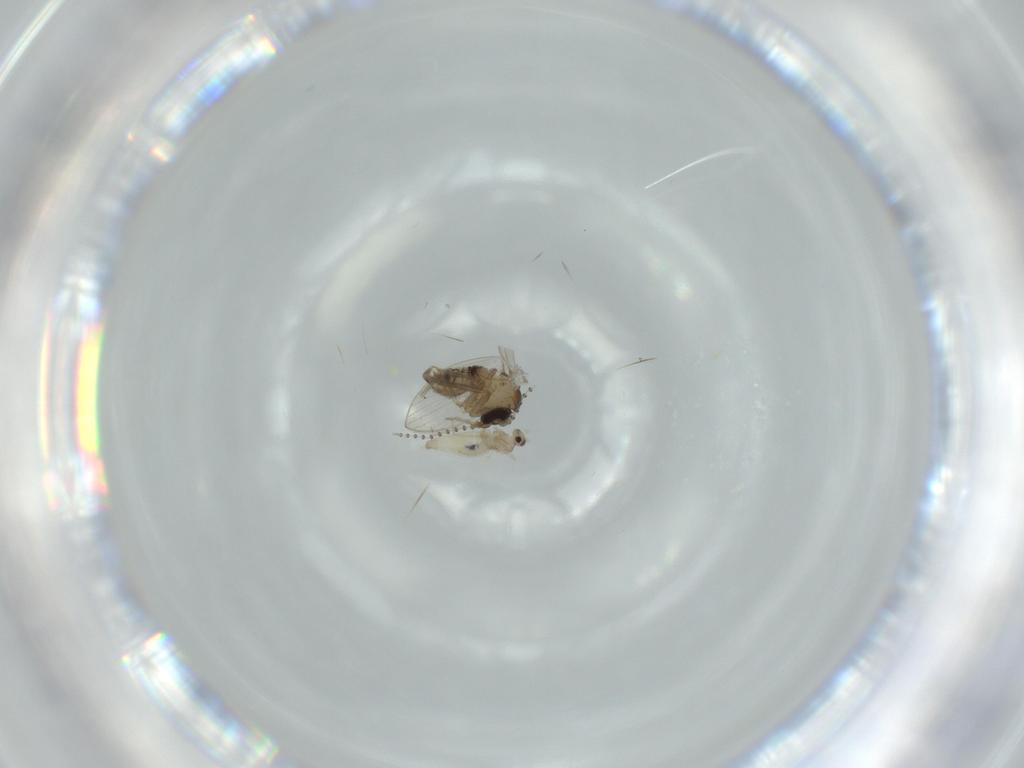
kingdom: Animalia
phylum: Arthropoda
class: Insecta
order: Diptera
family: Psychodidae
